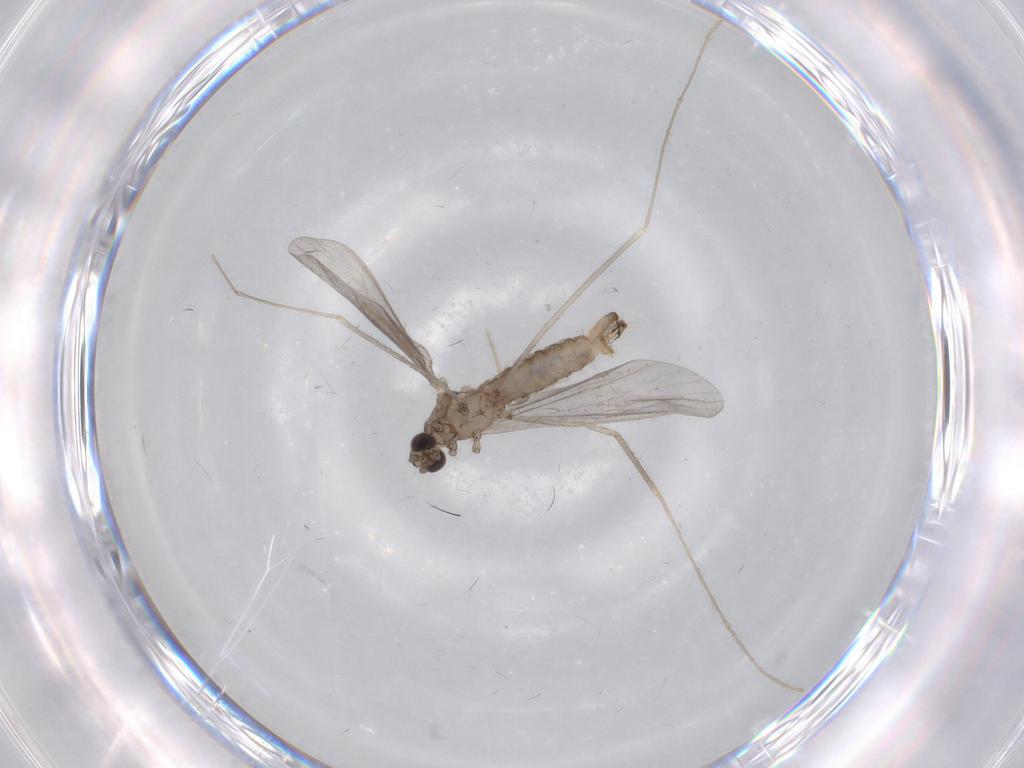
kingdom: Animalia
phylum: Arthropoda
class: Insecta
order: Diptera
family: Limoniidae
